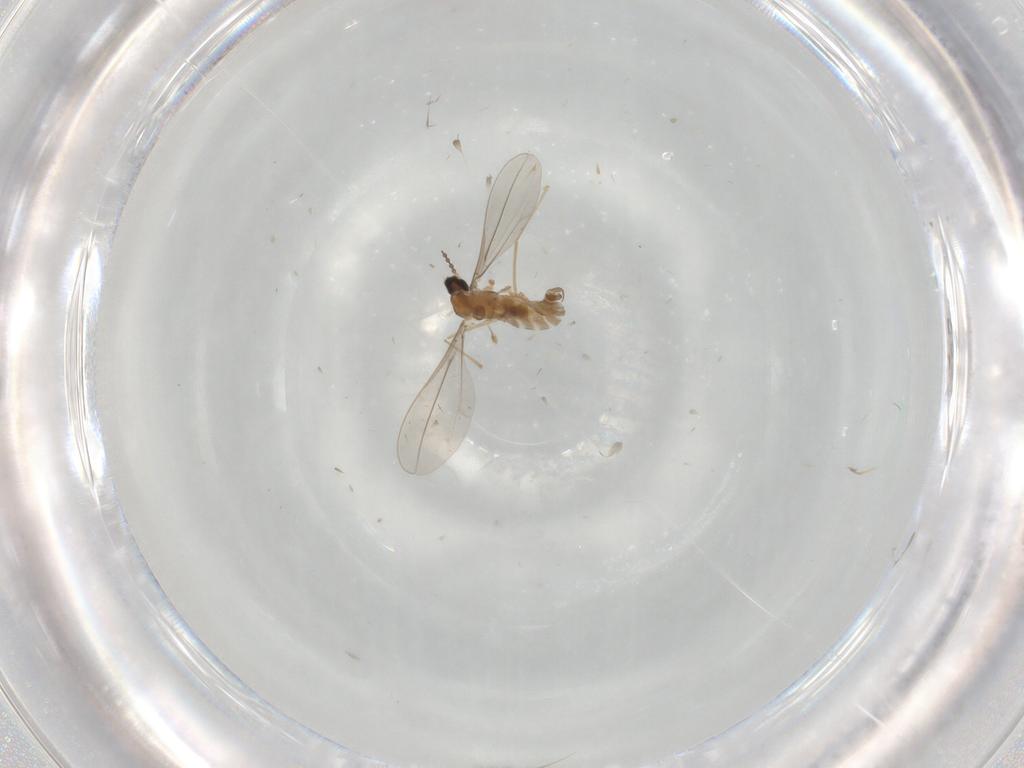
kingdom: Animalia
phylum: Arthropoda
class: Insecta
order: Diptera
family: Cecidomyiidae
